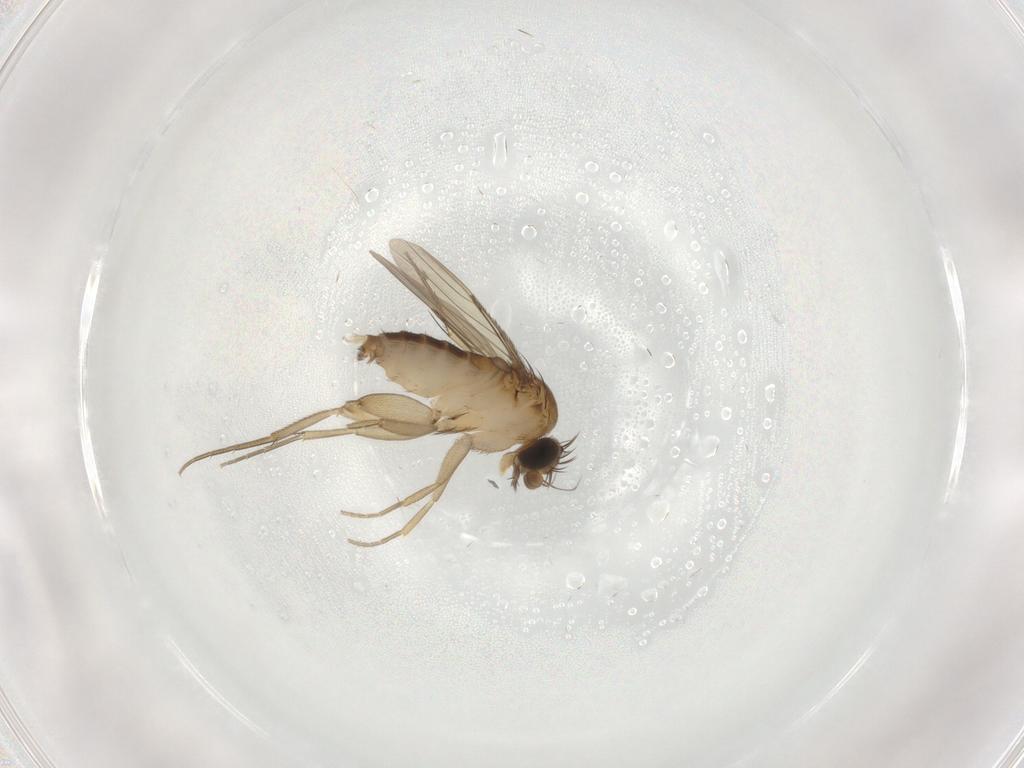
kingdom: Animalia
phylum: Arthropoda
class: Insecta
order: Diptera
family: Phoridae
